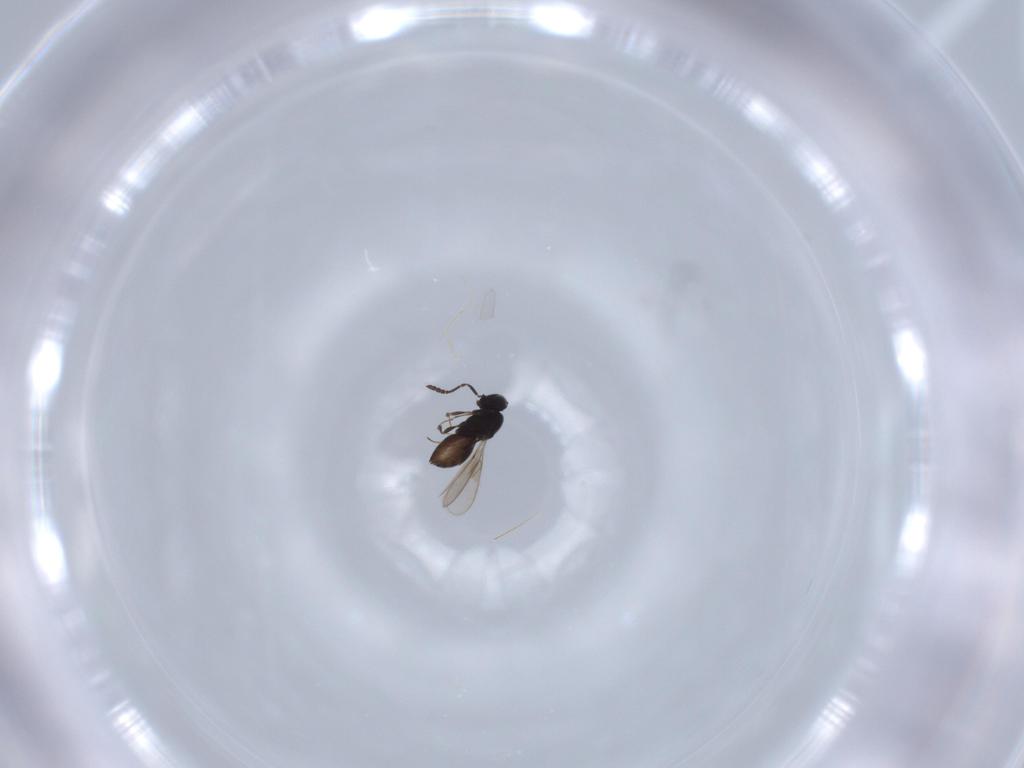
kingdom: Animalia
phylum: Arthropoda
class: Insecta
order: Hymenoptera
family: Scelionidae
